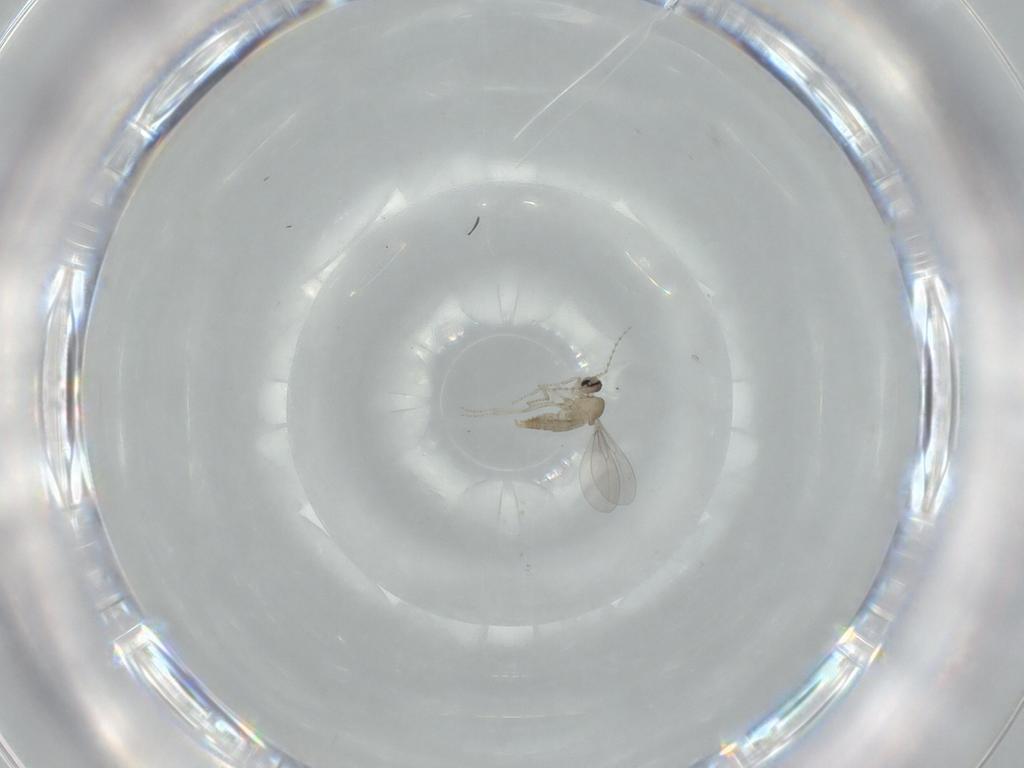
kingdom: Animalia
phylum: Arthropoda
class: Insecta
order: Diptera
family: Cecidomyiidae
